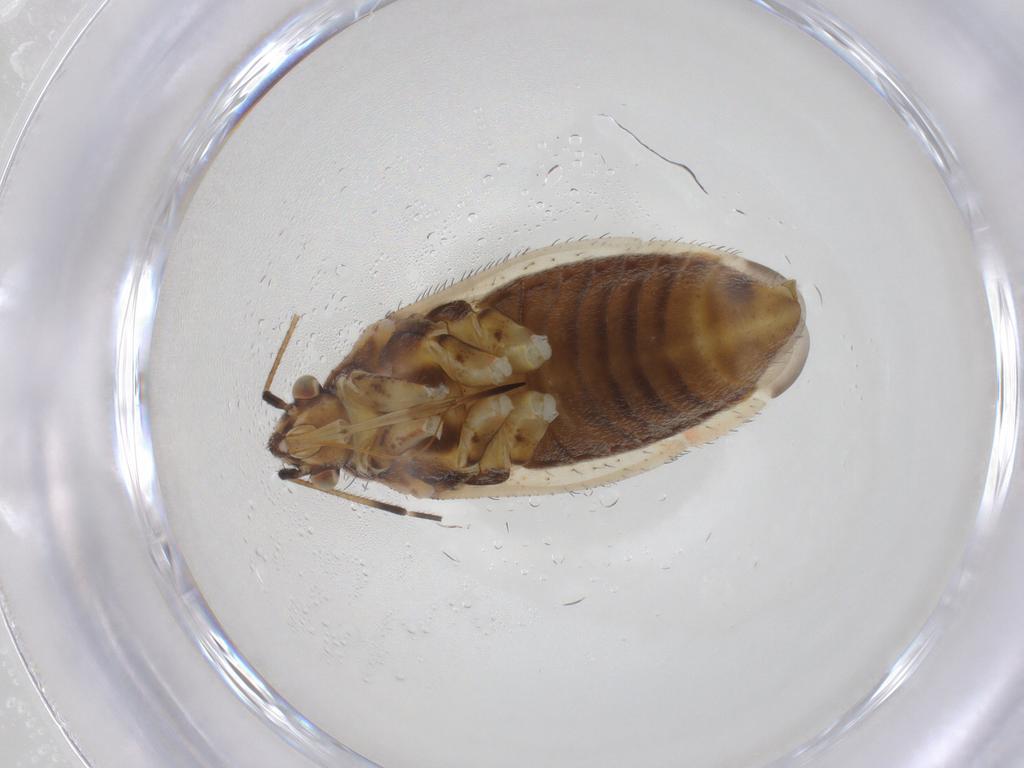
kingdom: Animalia
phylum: Arthropoda
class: Insecta
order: Hemiptera
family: Miridae
